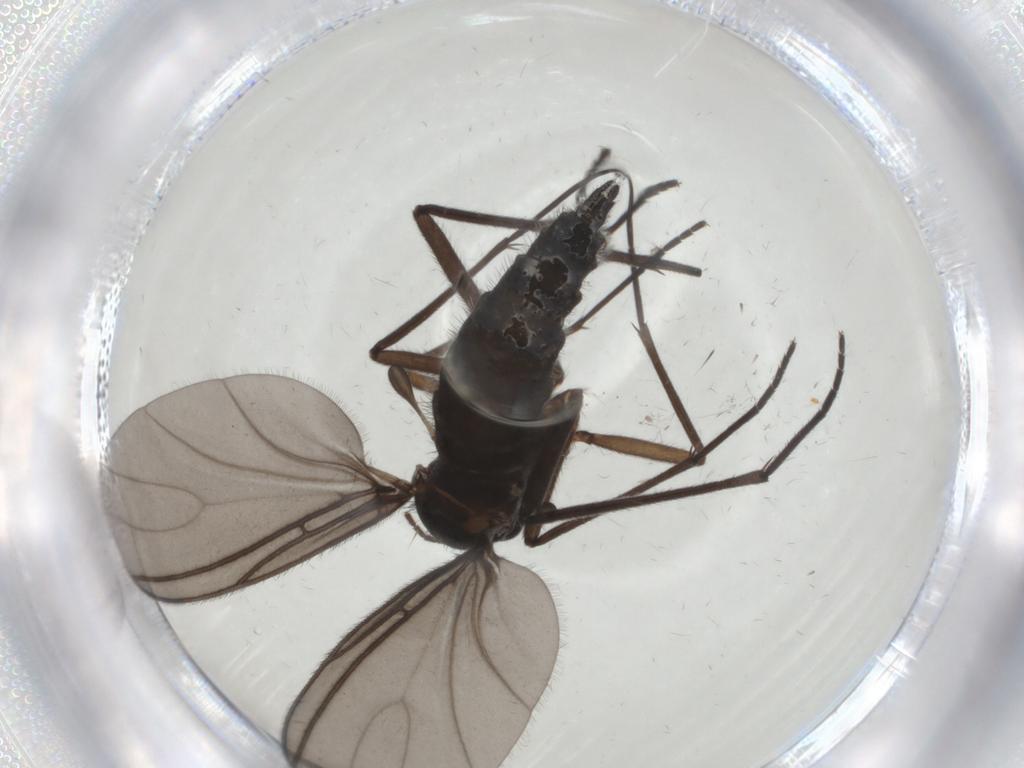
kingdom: Animalia
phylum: Arthropoda
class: Insecta
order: Diptera
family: Sciaridae
